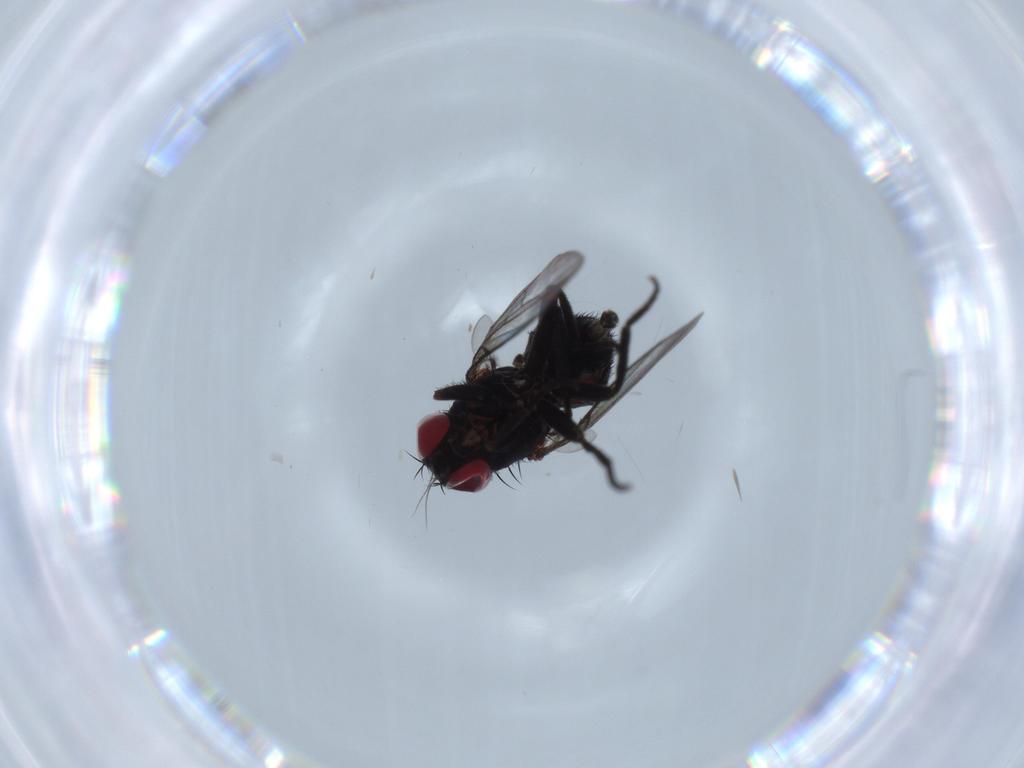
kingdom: Animalia
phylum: Arthropoda
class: Insecta
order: Diptera
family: Agromyzidae
